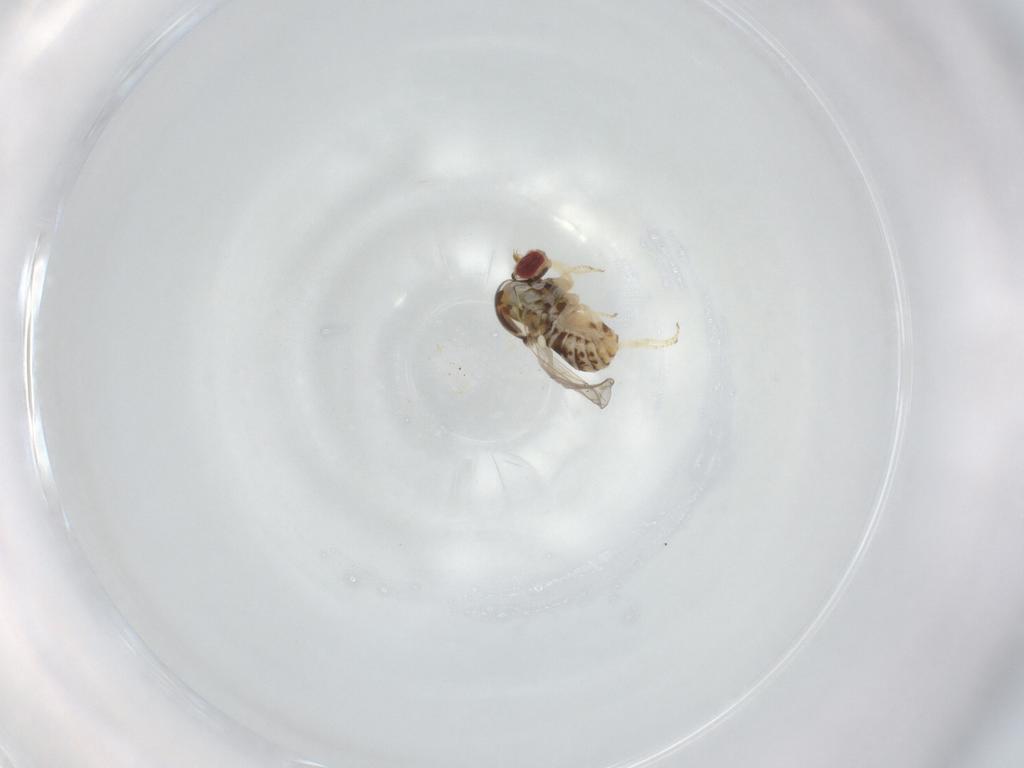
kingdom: Animalia
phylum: Arthropoda
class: Insecta
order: Diptera
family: Bombyliidae
